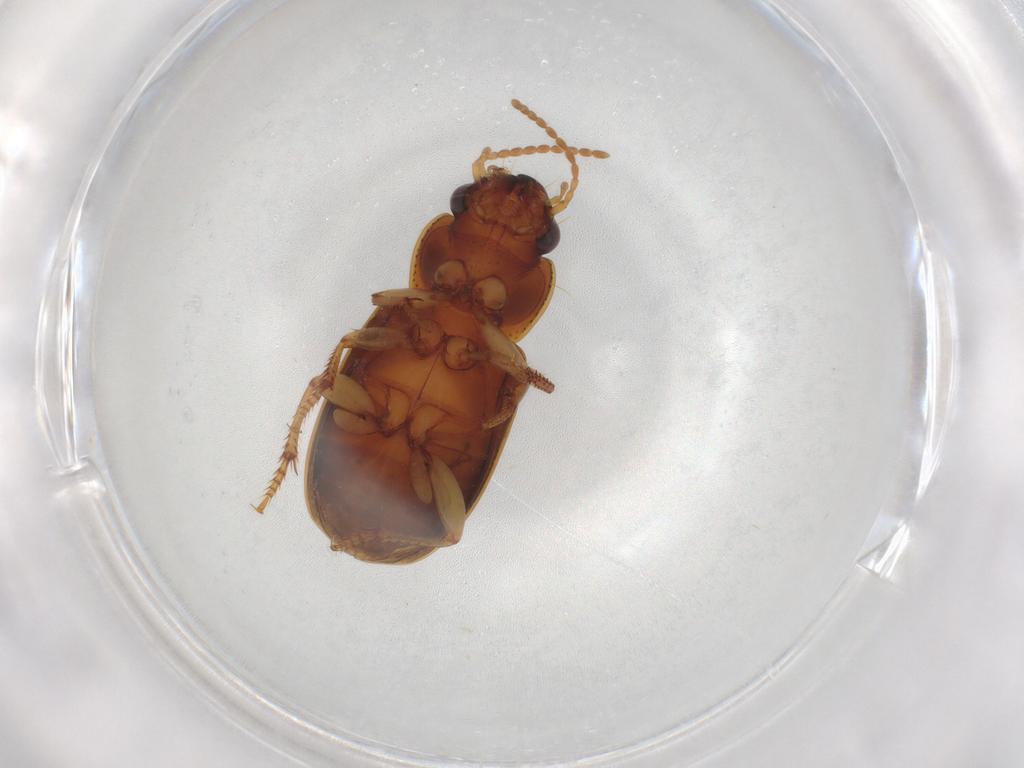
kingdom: Animalia
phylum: Arthropoda
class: Insecta
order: Coleoptera
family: Carabidae
